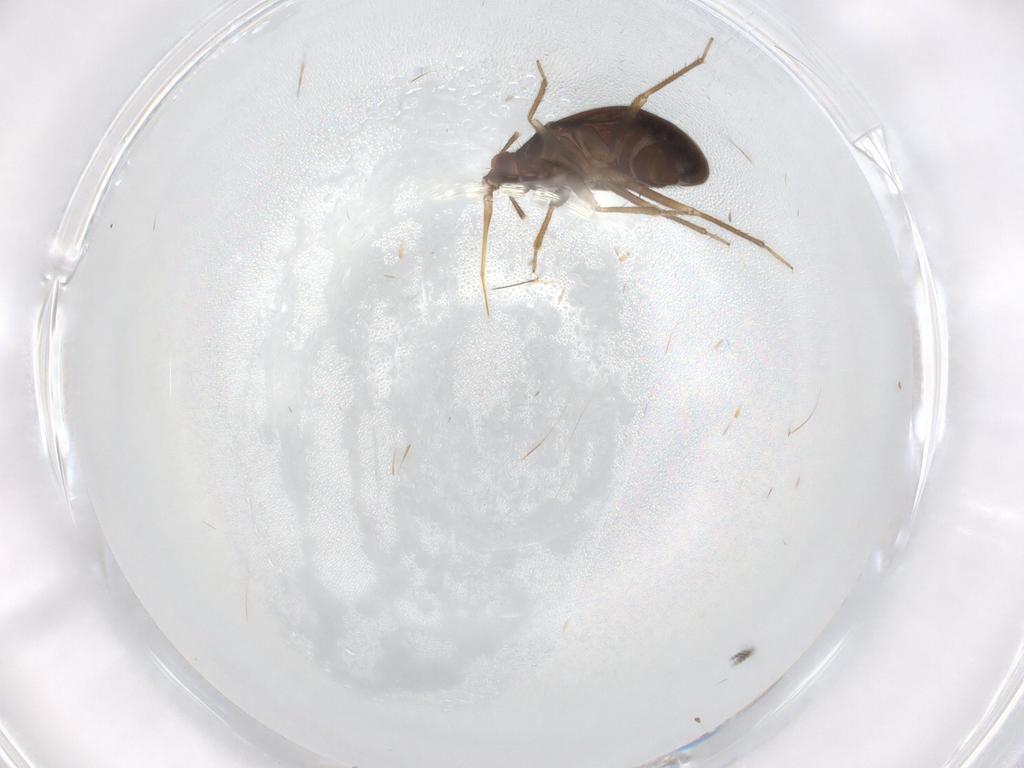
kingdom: Animalia
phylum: Arthropoda
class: Insecta
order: Hemiptera
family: Ceratocombidae
